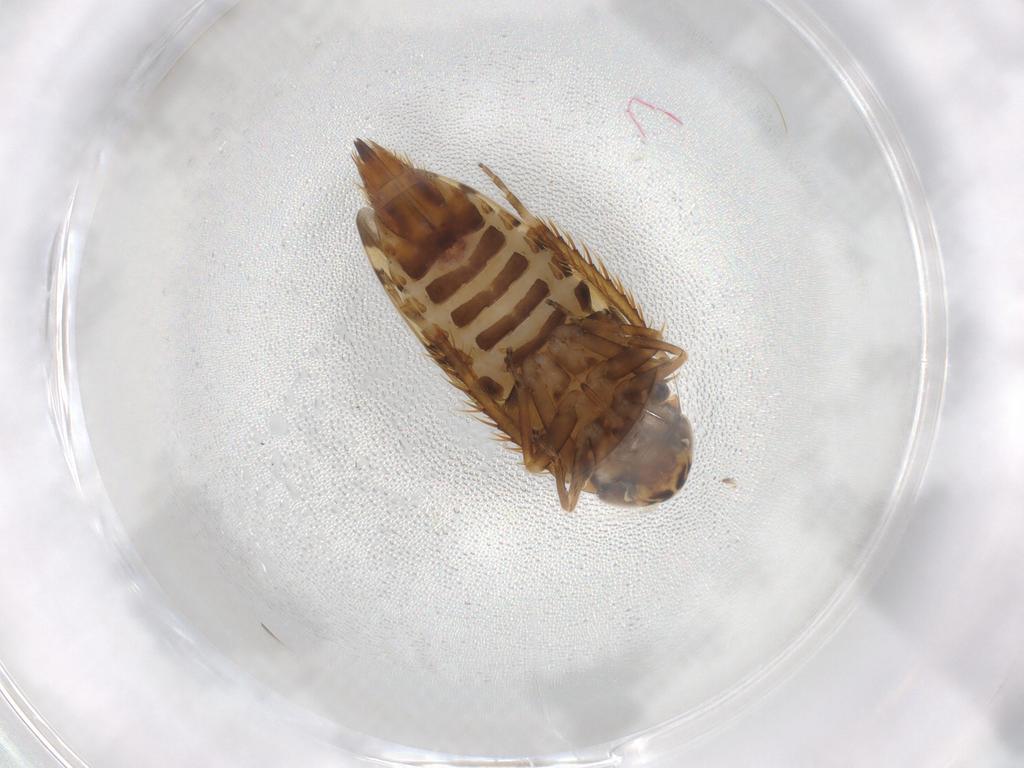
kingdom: Animalia
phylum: Arthropoda
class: Insecta
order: Hemiptera
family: Cicadellidae
